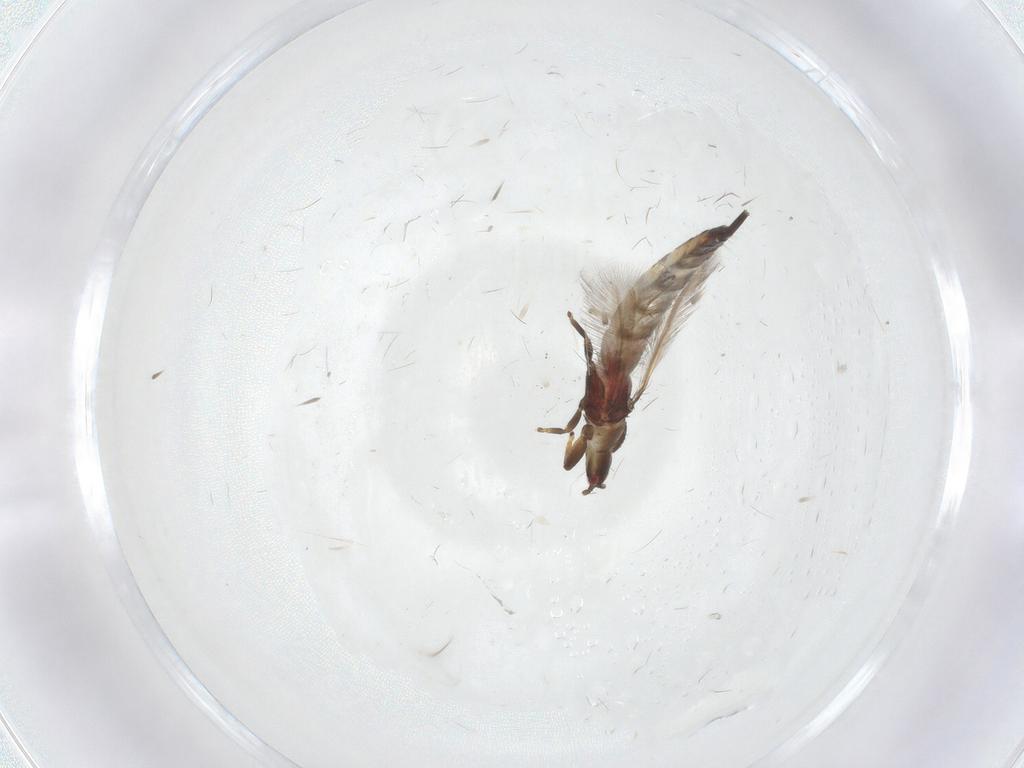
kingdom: Animalia
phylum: Arthropoda
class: Insecta
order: Thysanoptera
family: Phlaeothripidae
